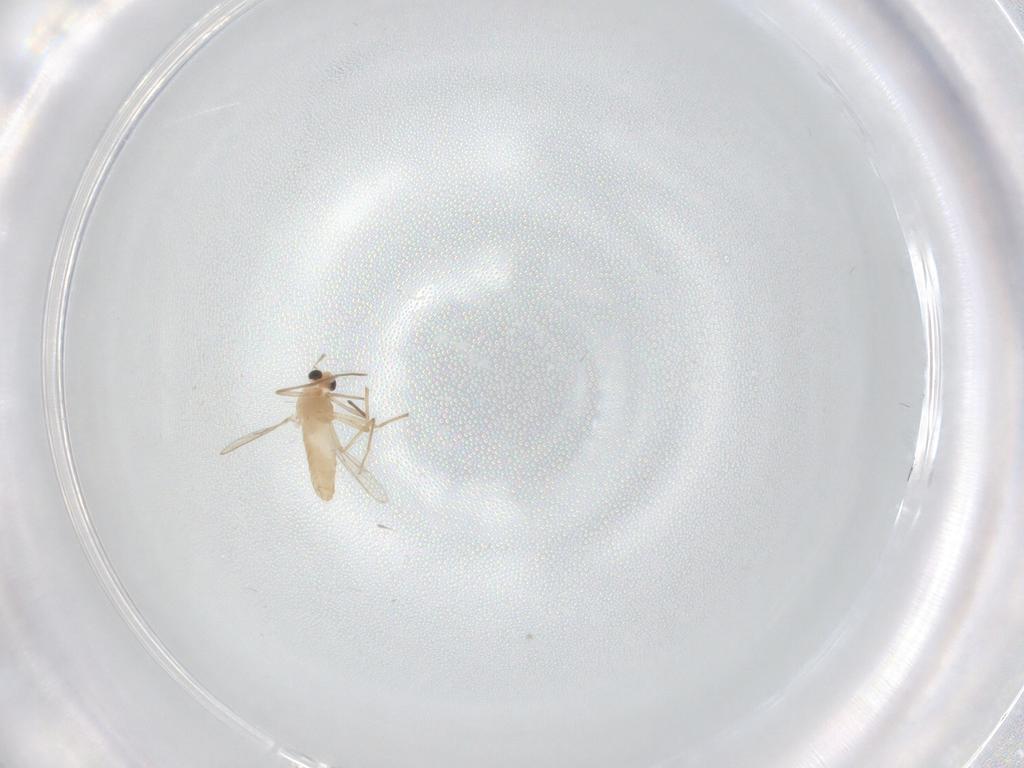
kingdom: Animalia
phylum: Arthropoda
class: Insecta
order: Diptera
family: Chironomidae
